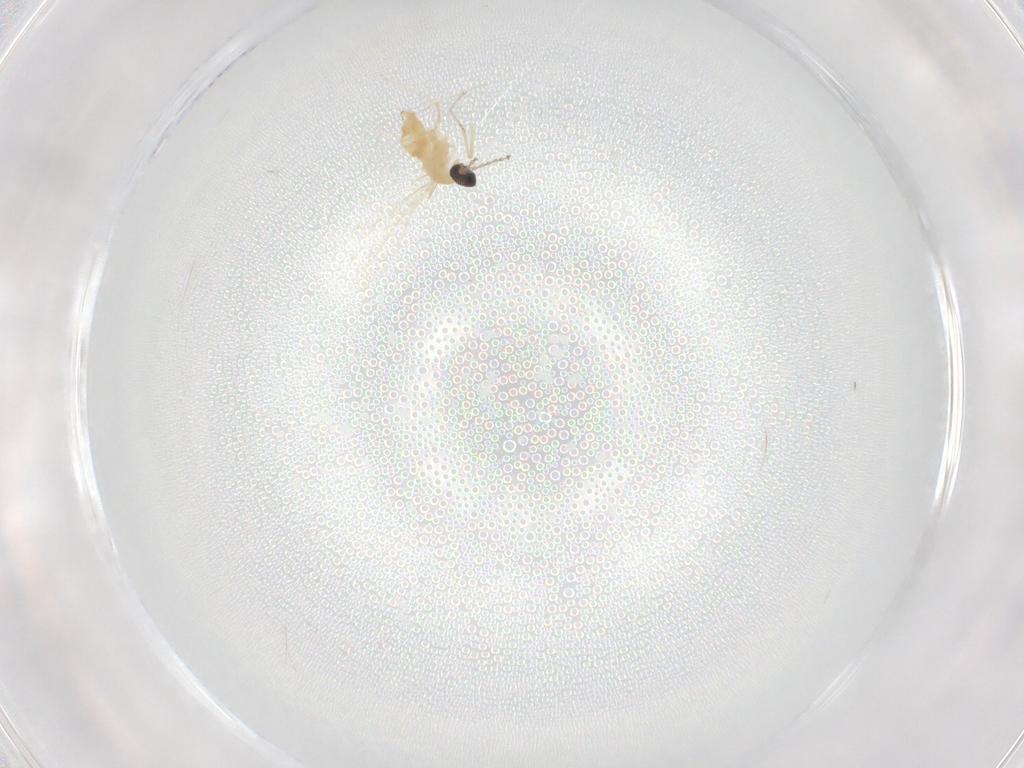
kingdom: Animalia
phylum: Arthropoda
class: Insecta
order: Diptera
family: Cecidomyiidae
